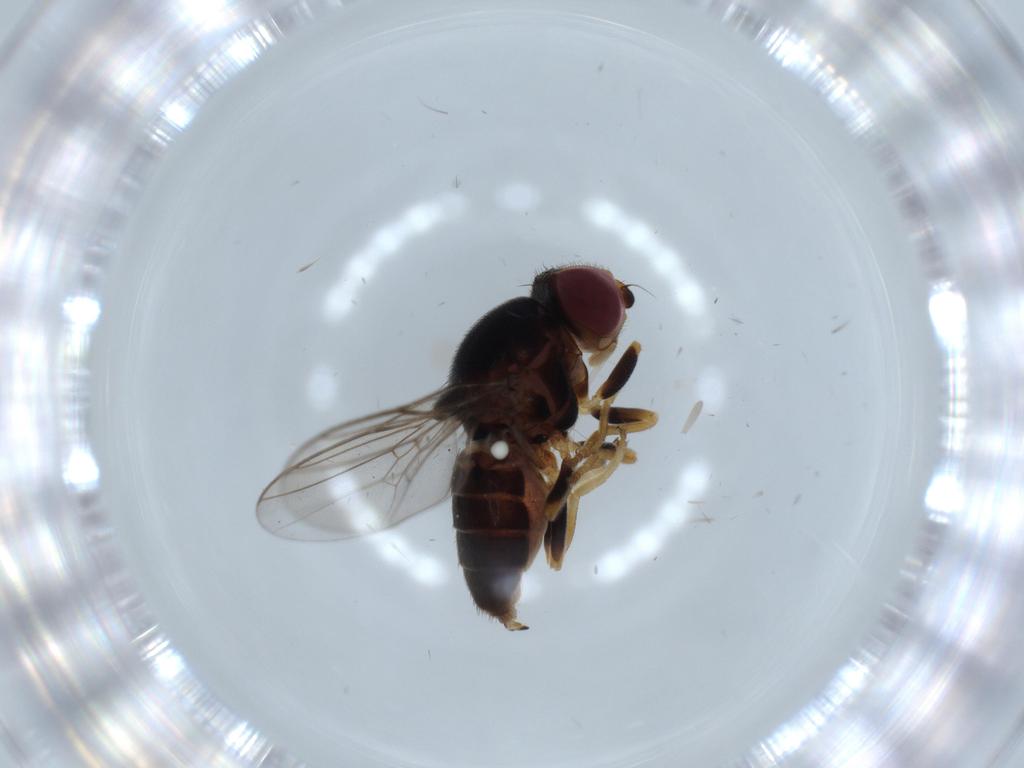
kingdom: Animalia
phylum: Arthropoda
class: Insecta
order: Diptera
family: Chloropidae
